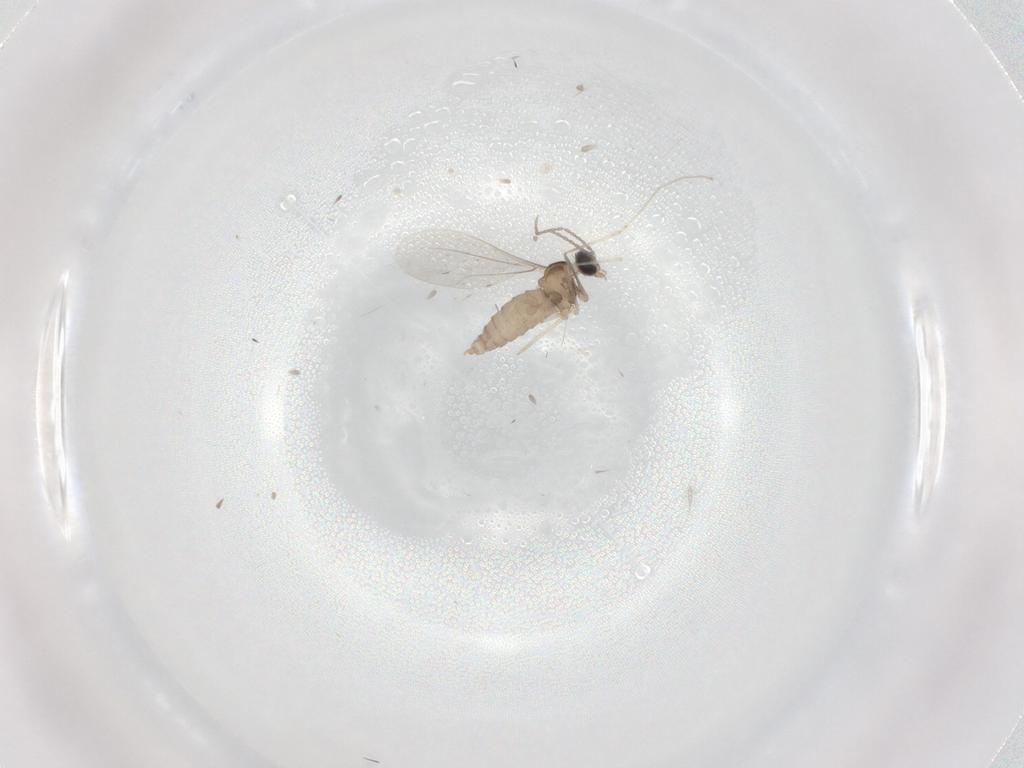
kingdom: Animalia
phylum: Arthropoda
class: Insecta
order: Diptera
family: Cecidomyiidae
